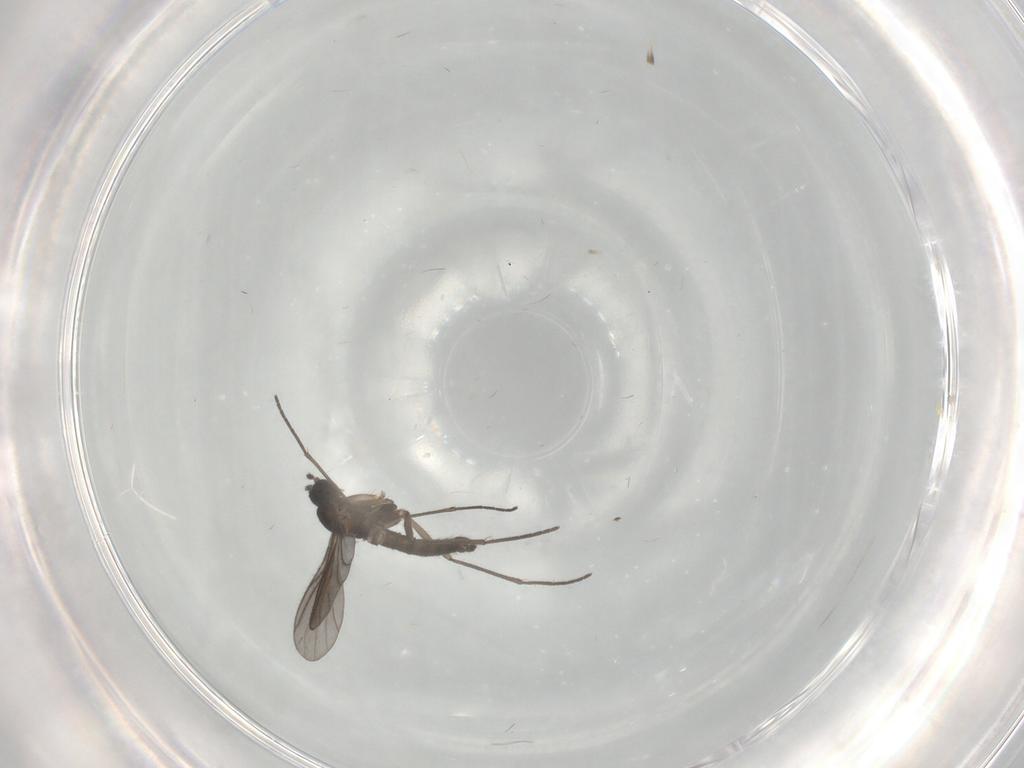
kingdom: Animalia
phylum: Arthropoda
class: Insecta
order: Diptera
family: Sciaridae
